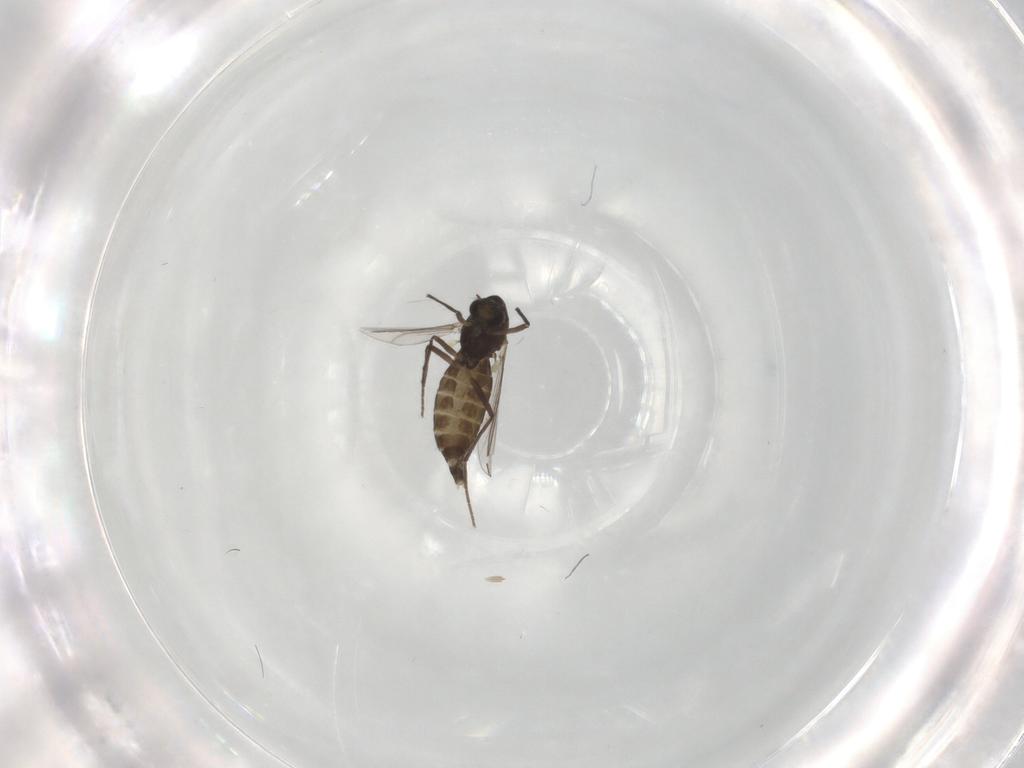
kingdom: Animalia
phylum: Arthropoda
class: Insecta
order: Diptera
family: Chironomidae
